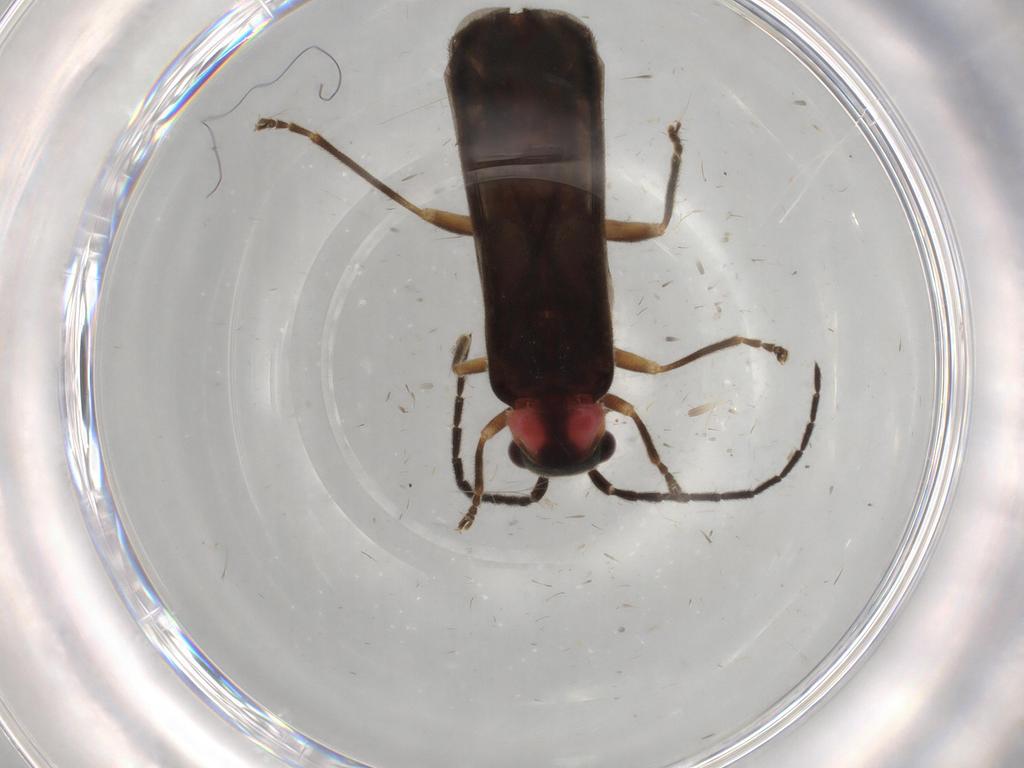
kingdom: Animalia
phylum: Arthropoda
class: Insecta
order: Coleoptera
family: Cantharidae
